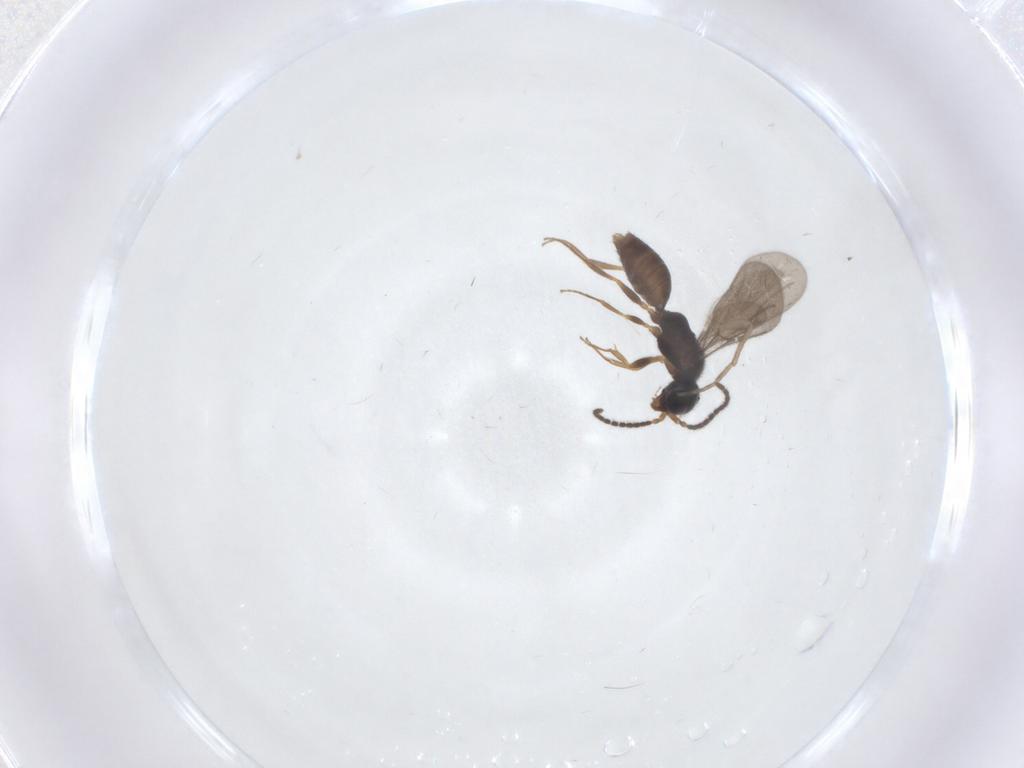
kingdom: Animalia
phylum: Arthropoda
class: Insecta
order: Hymenoptera
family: Bethylidae
